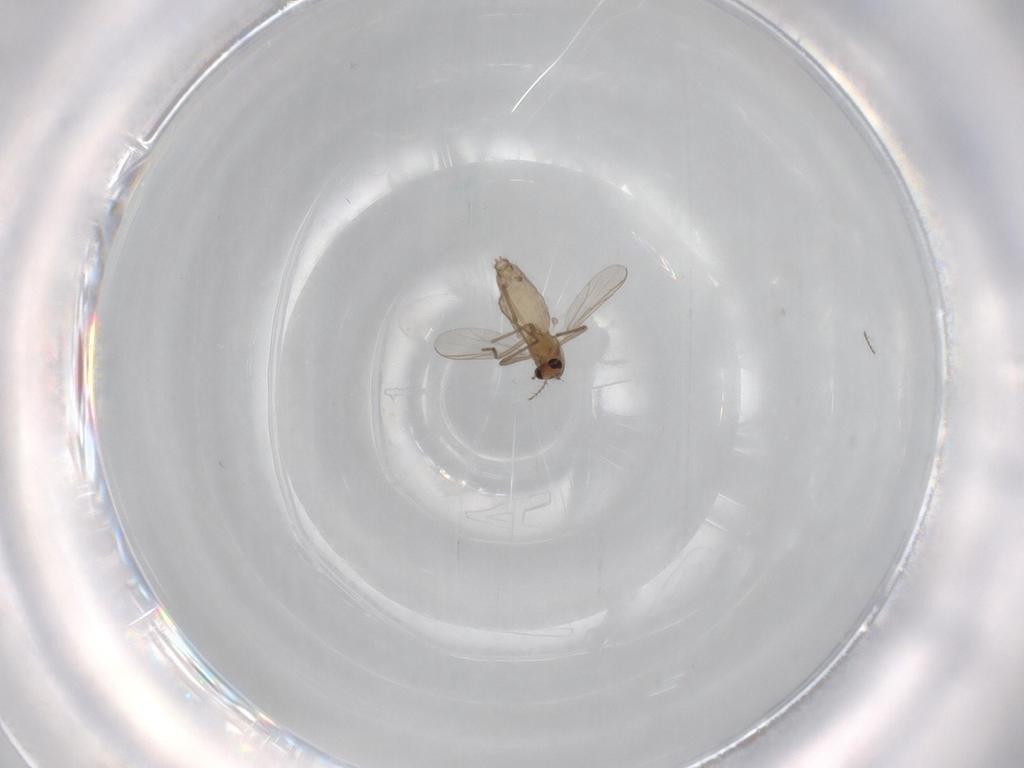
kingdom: Animalia
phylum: Arthropoda
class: Insecta
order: Diptera
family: Chironomidae
